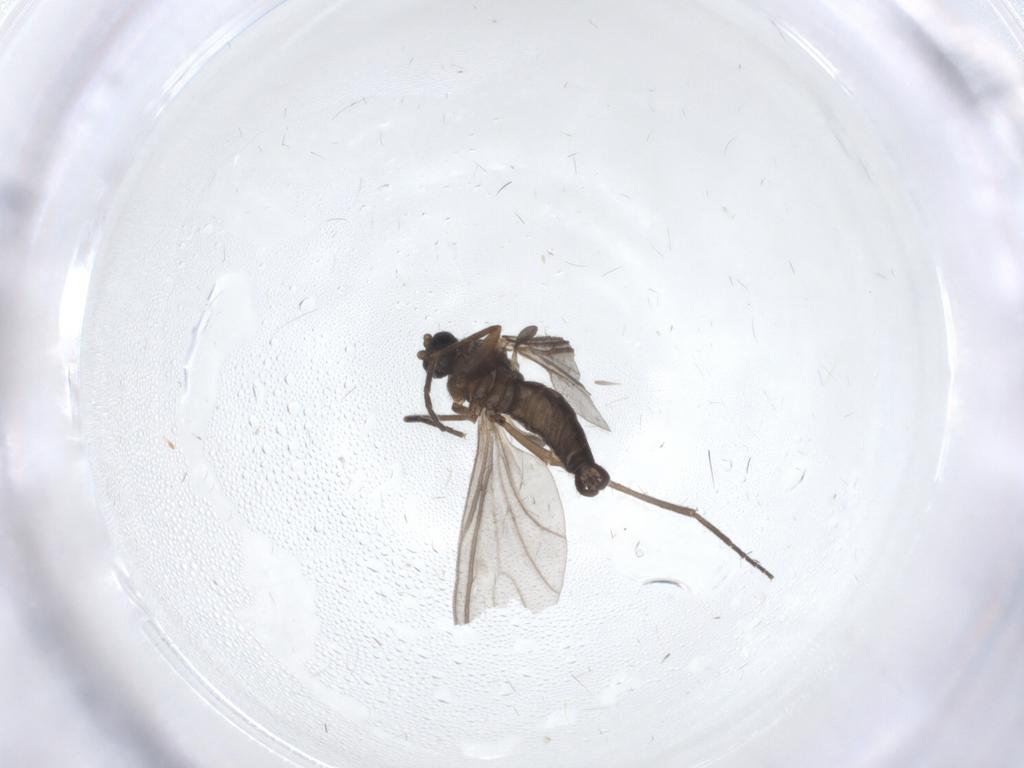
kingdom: Animalia
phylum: Arthropoda
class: Insecta
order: Diptera
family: Sciaridae
